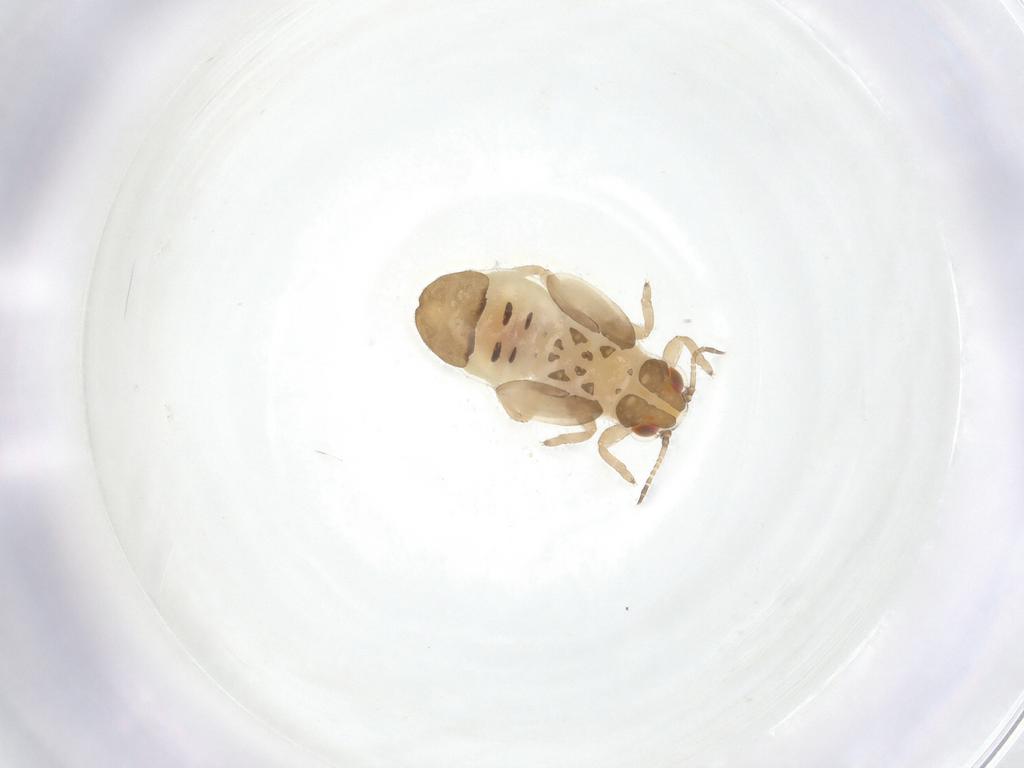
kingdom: Animalia
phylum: Arthropoda
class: Insecta
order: Hemiptera
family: Aphalaridae
